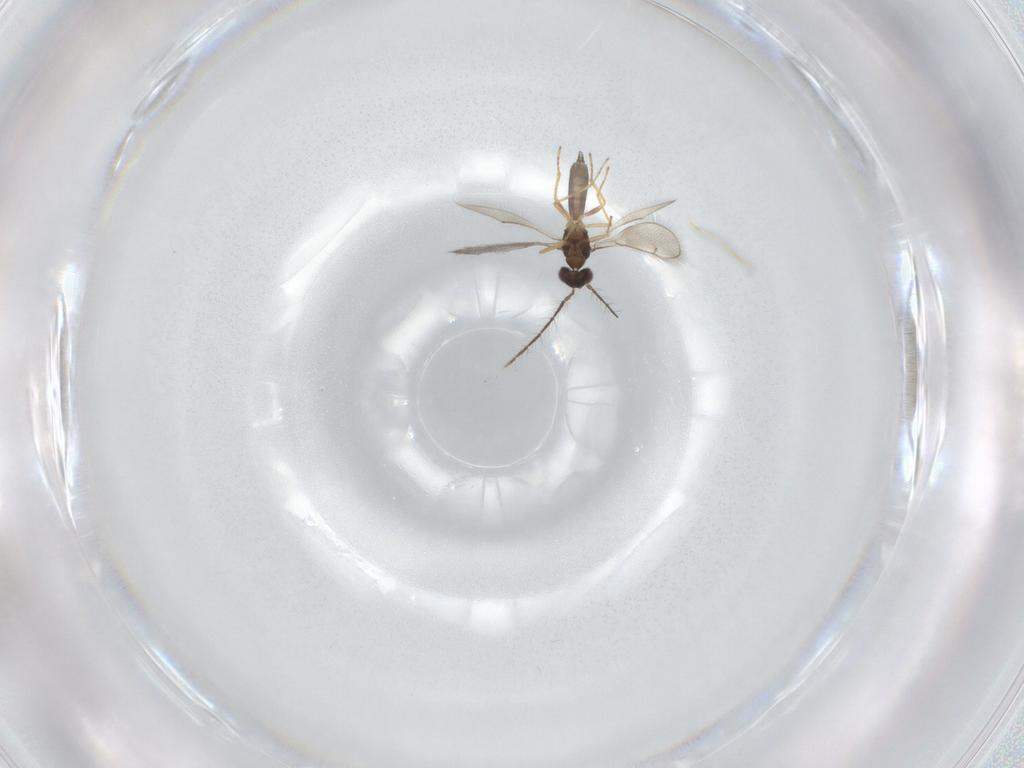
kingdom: Animalia
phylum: Arthropoda
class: Insecta
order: Hymenoptera
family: Eulophidae
